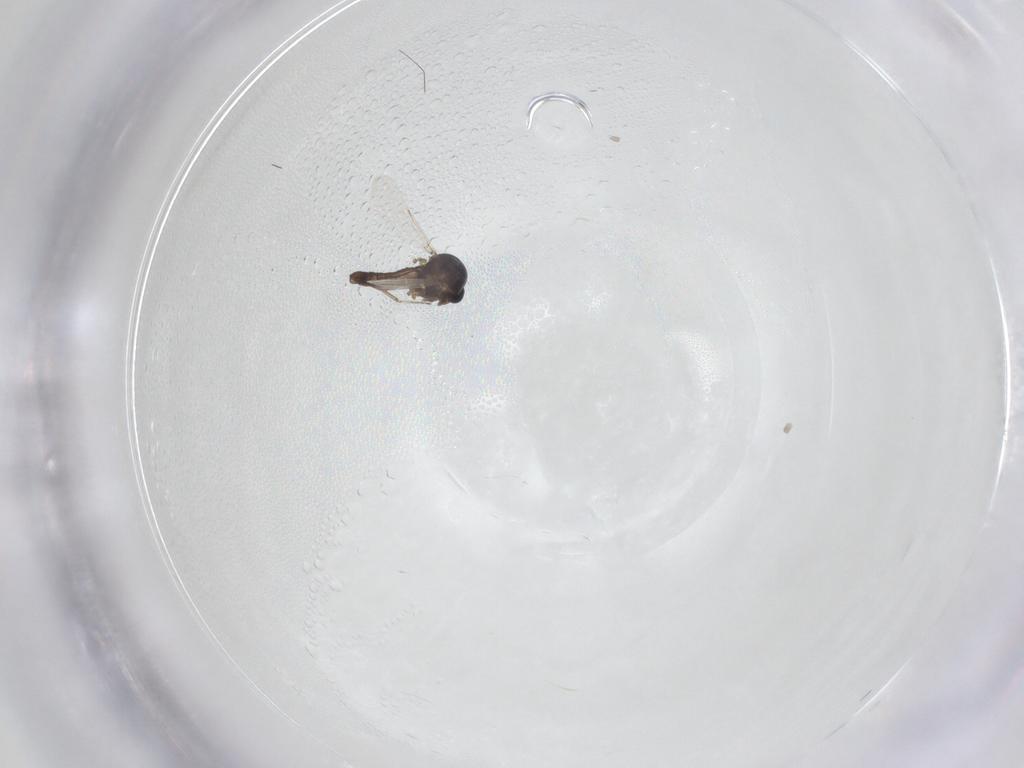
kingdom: Animalia
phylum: Arthropoda
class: Insecta
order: Diptera
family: Ceratopogonidae
